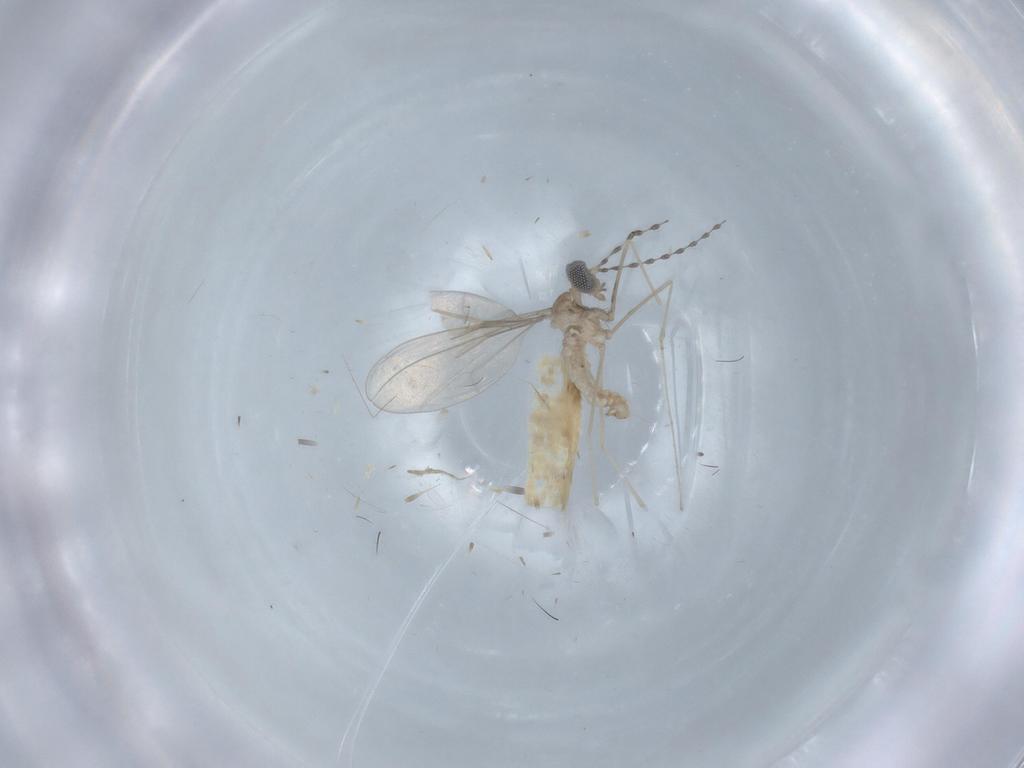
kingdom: Animalia
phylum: Arthropoda
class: Insecta
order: Diptera
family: Cecidomyiidae
